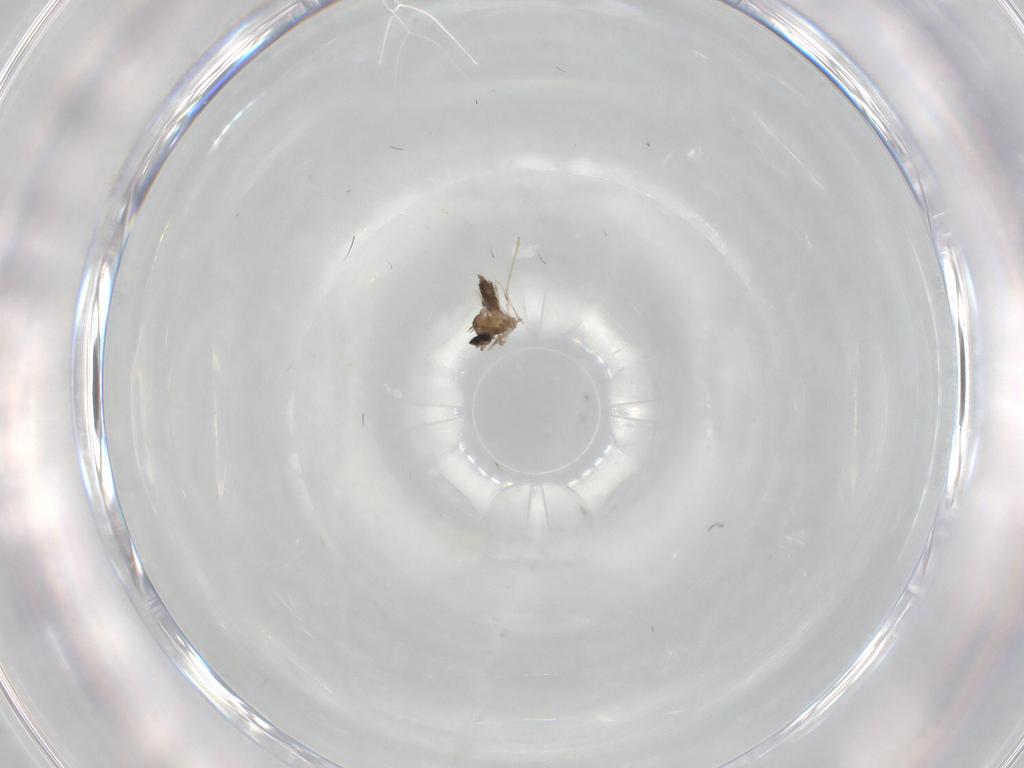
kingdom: Animalia
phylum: Arthropoda
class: Insecta
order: Diptera
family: Cecidomyiidae
